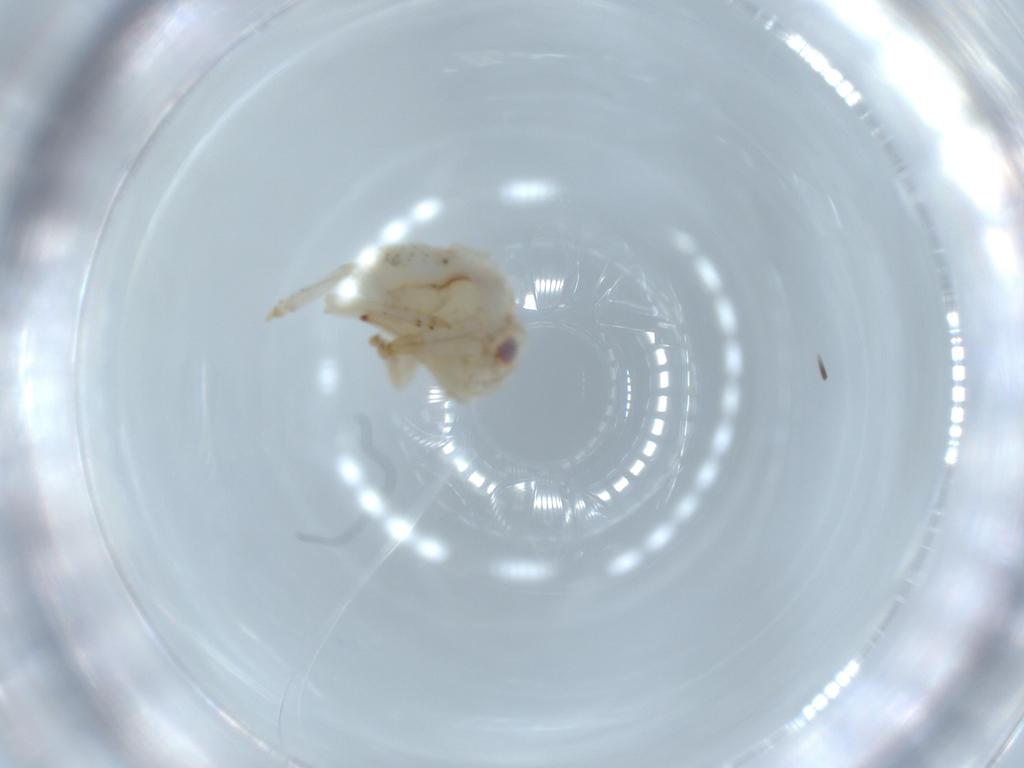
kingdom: Animalia
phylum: Arthropoda
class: Insecta
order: Hemiptera
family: Acanaloniidae
